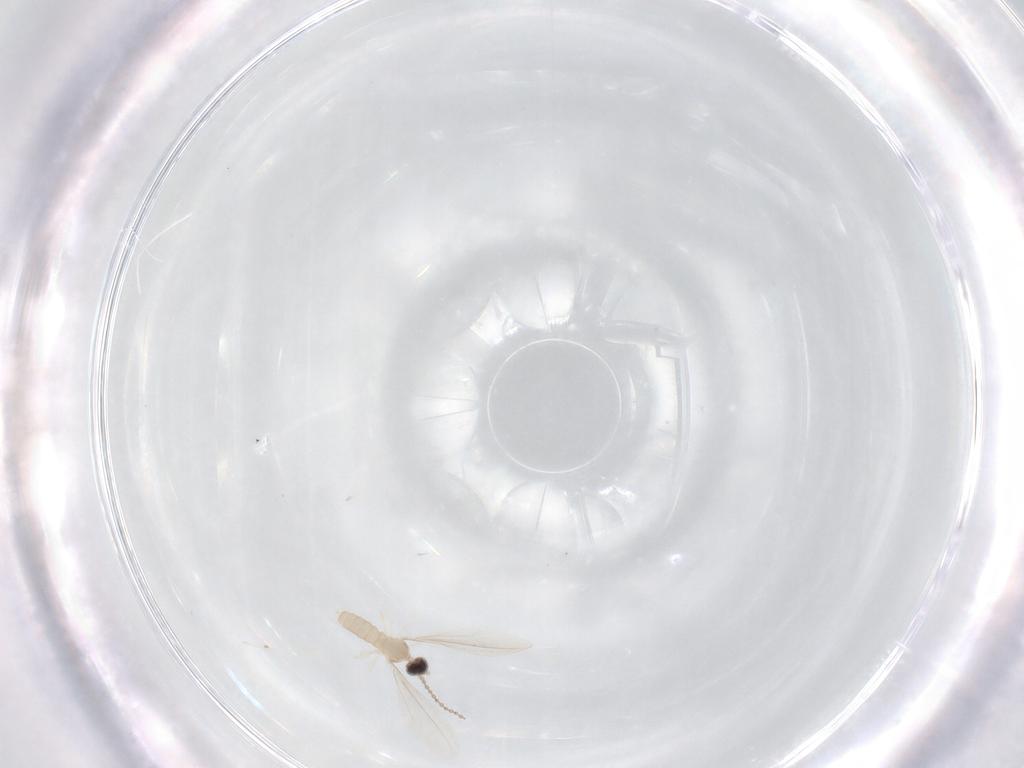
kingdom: Animalia
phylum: Arthropoda
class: Insecta
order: Diptera
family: Cecidomyiidae
